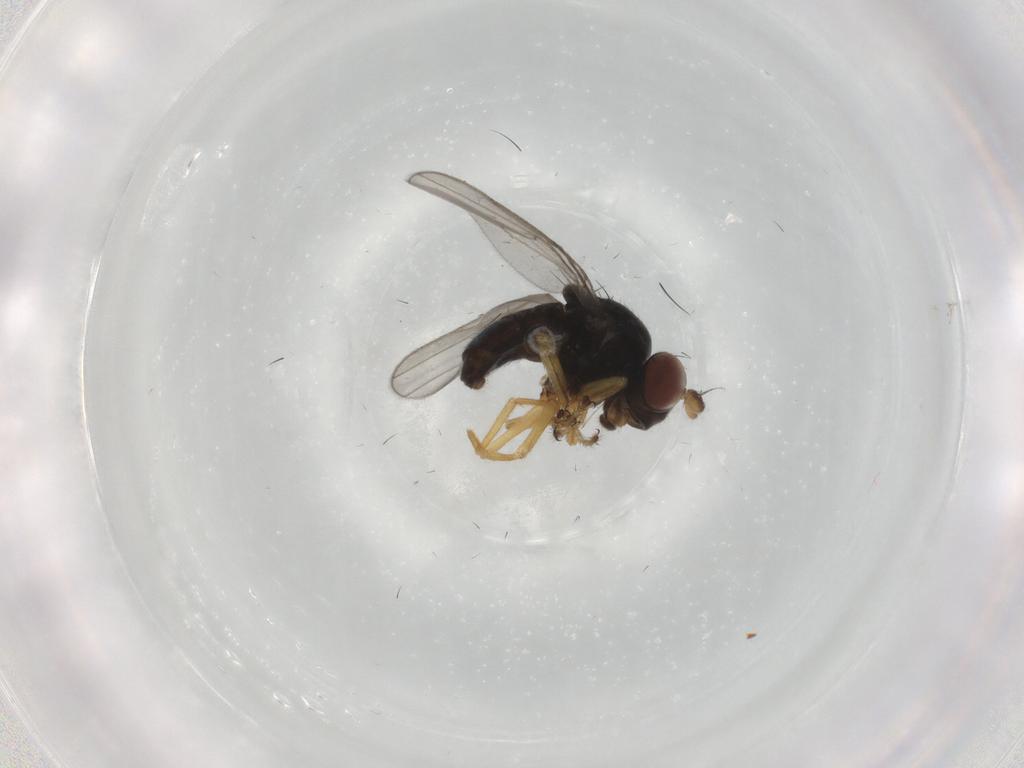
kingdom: Animalia
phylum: Arthropoda
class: Insecta
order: Diptera
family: Ephydridae
